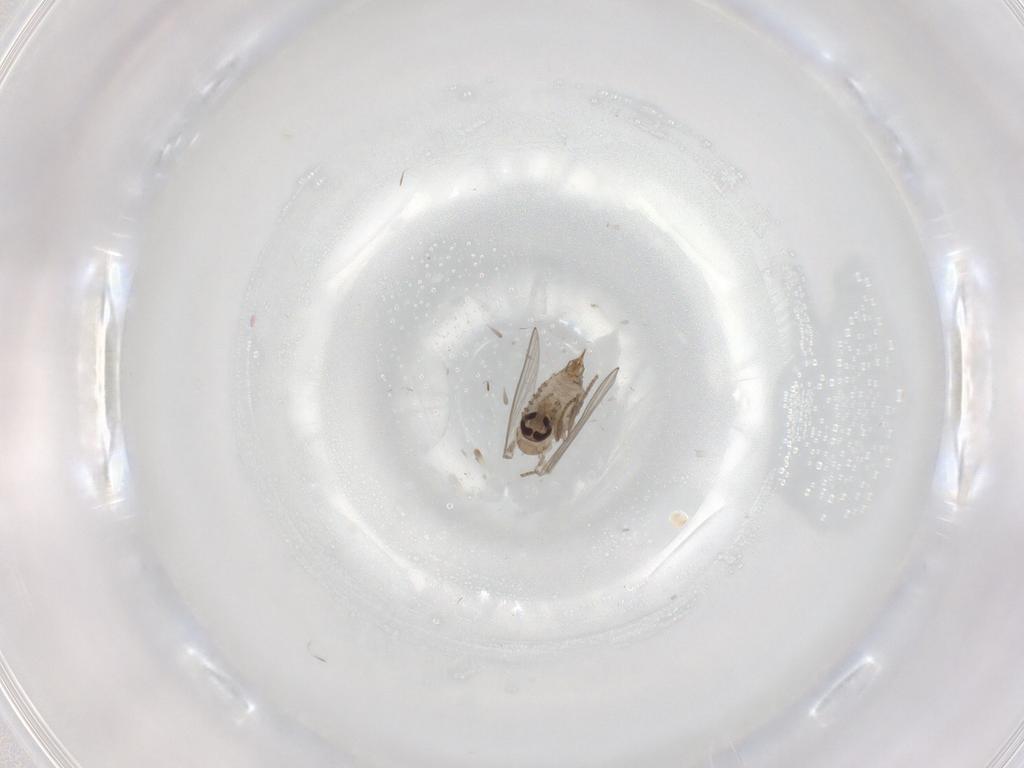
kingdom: Animalia
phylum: Arthropoda
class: Insecta
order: Diptera
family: Psychodidae
